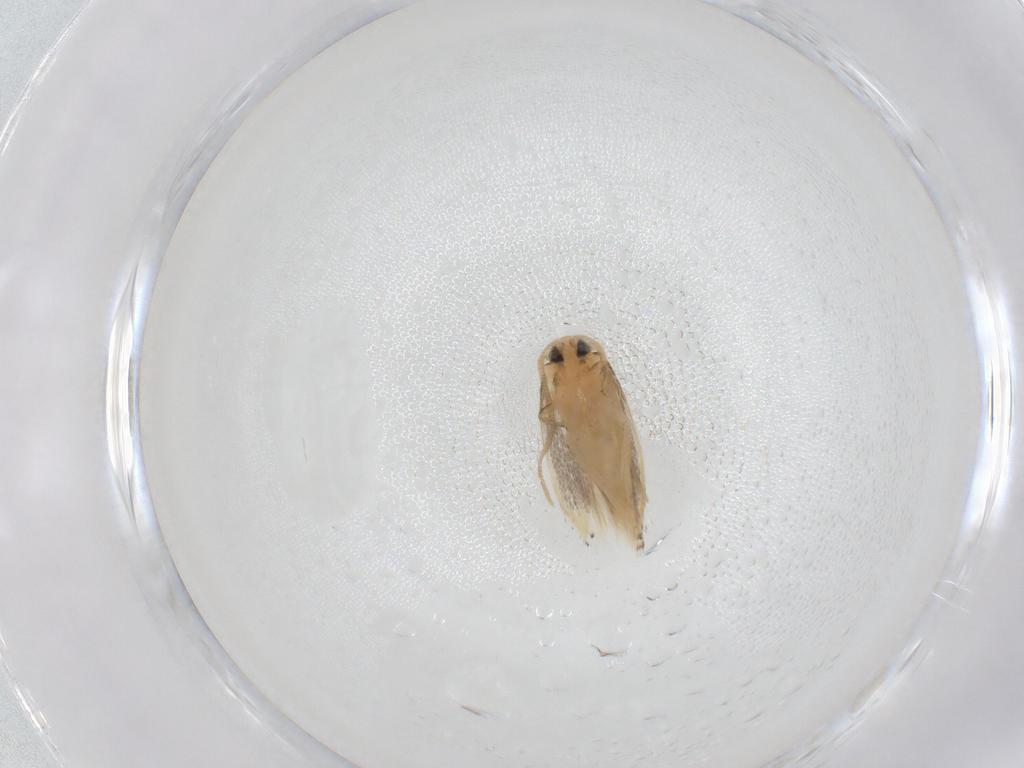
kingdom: Animalia
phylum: Arthropoda
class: Insecta
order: Lepidoptera
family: Opostegidae
